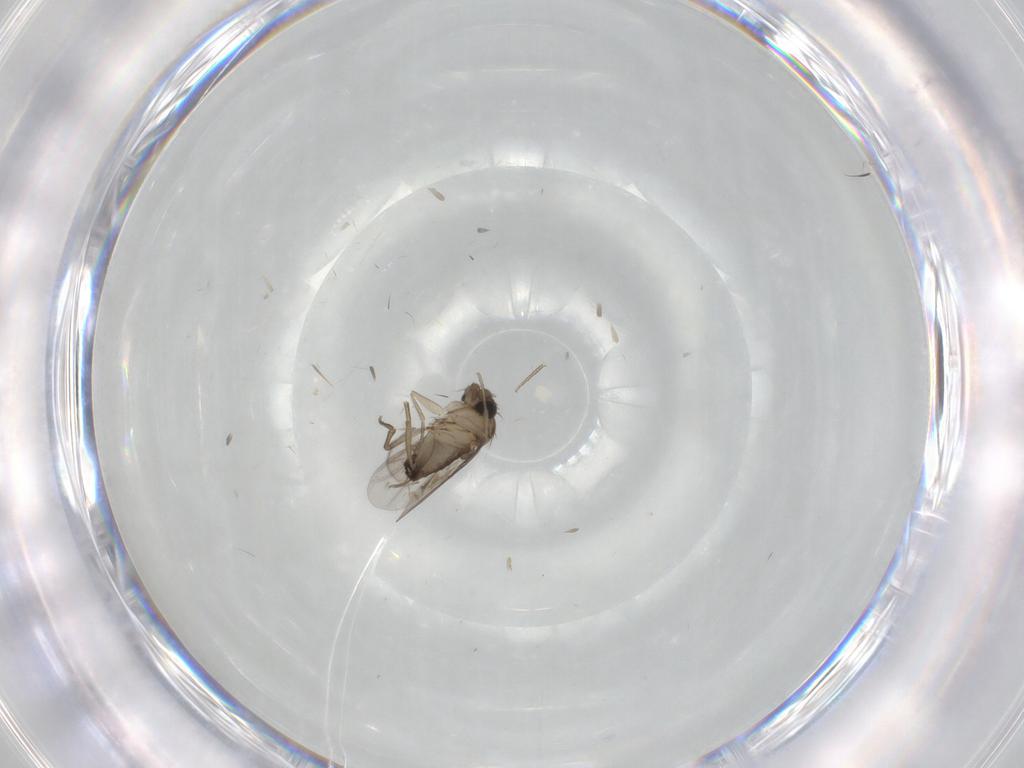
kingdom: Animalia
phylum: Arthropoda
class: Insecta
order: Diptera
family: Phoridae
